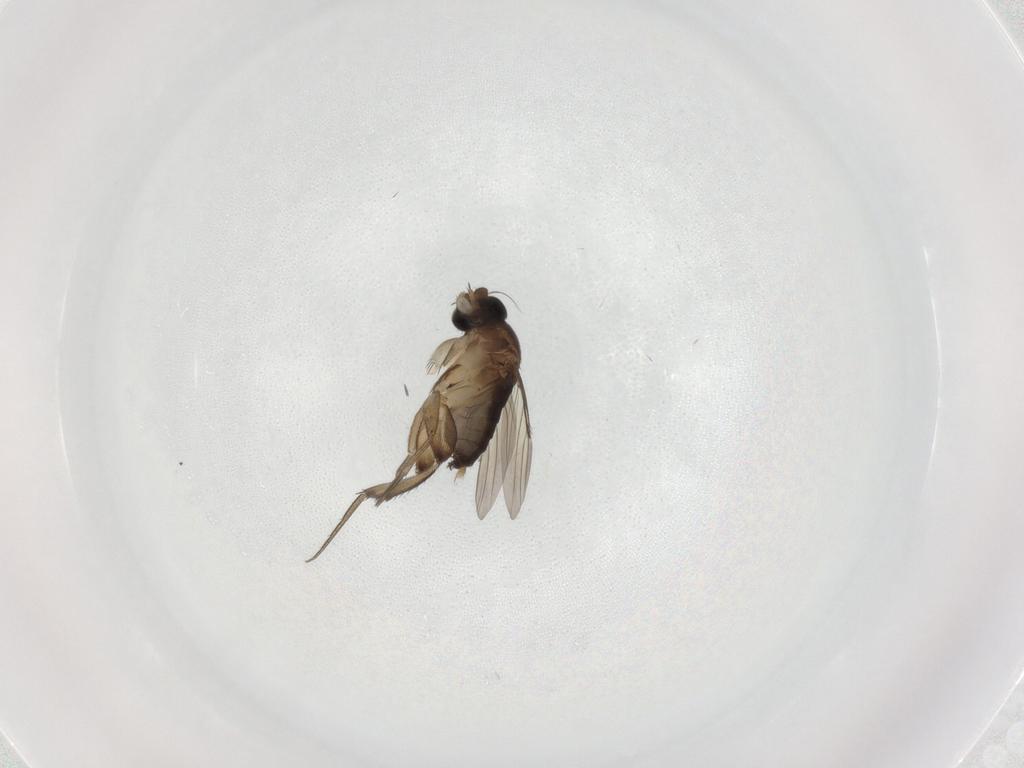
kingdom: Animalia
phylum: Arthropoda
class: Insecta
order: Diptera
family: Phoridae
